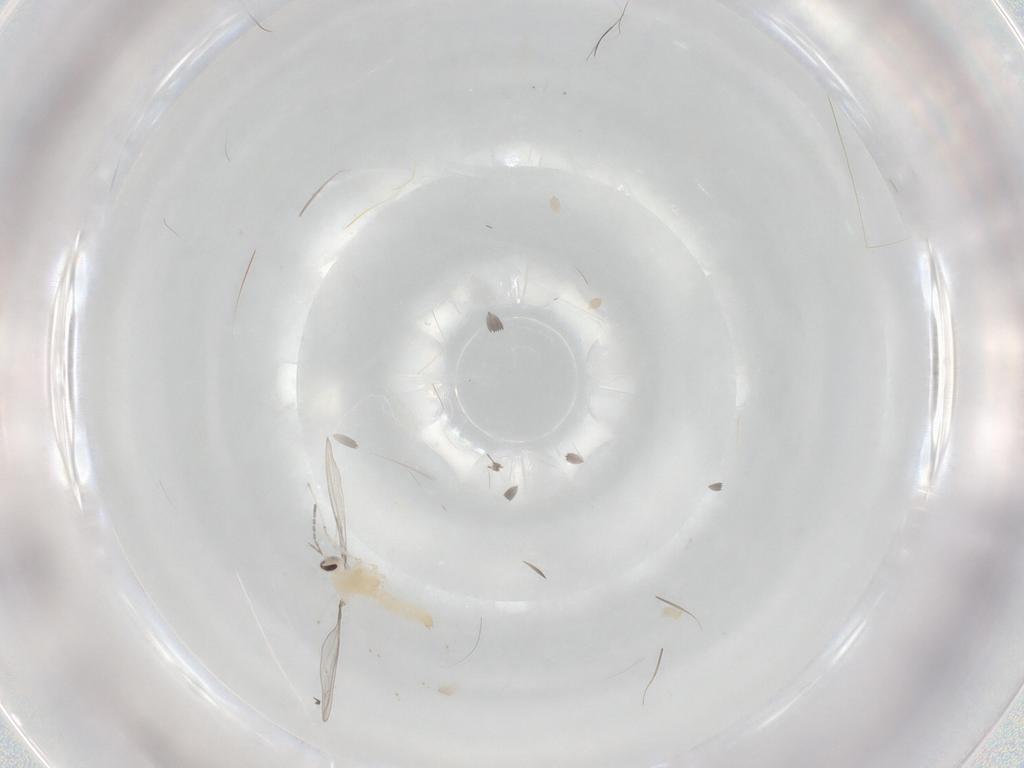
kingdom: Animalia
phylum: Arthropoda
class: Insecta
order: Diptera
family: Cecidomyiidae
